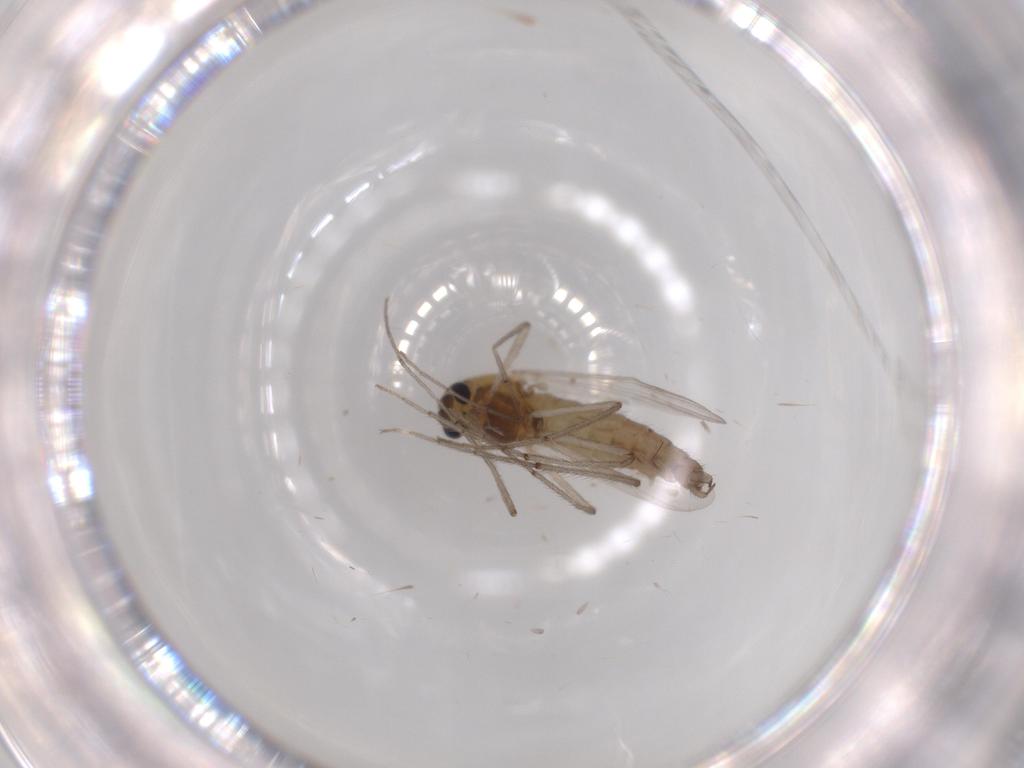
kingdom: Animalia
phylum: Arthropoda
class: Insecta
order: Diptera
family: Chironomidae
